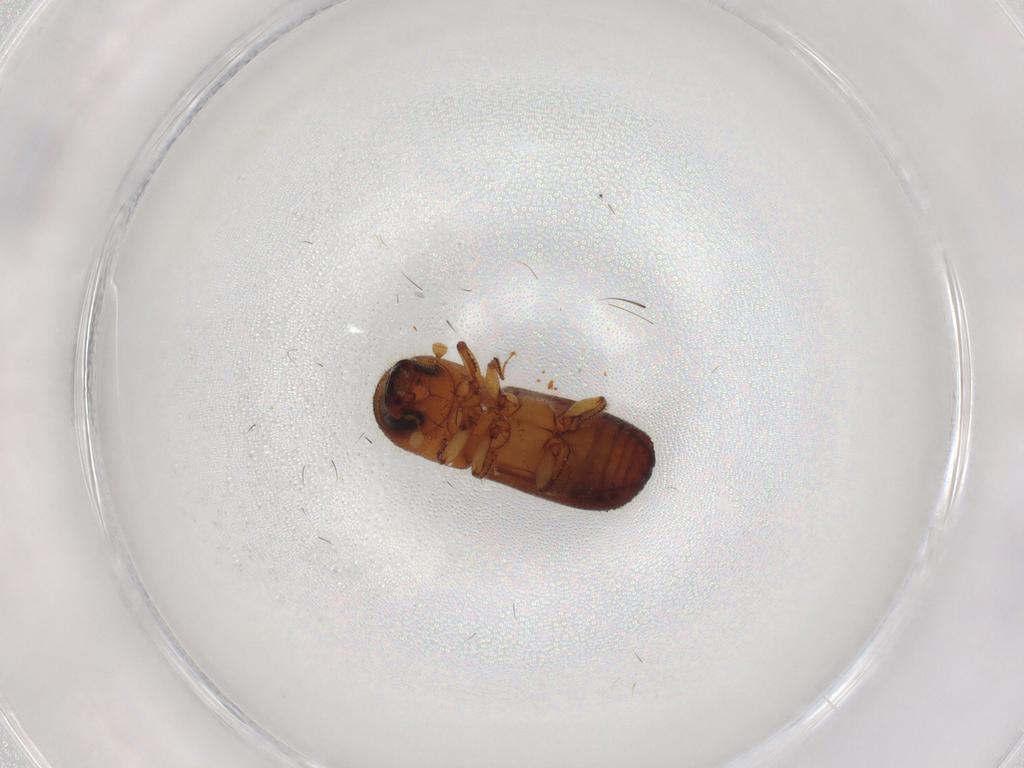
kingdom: Animalia
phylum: Arthropoda
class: Insecta
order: Coleoptera
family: Curculionidae
